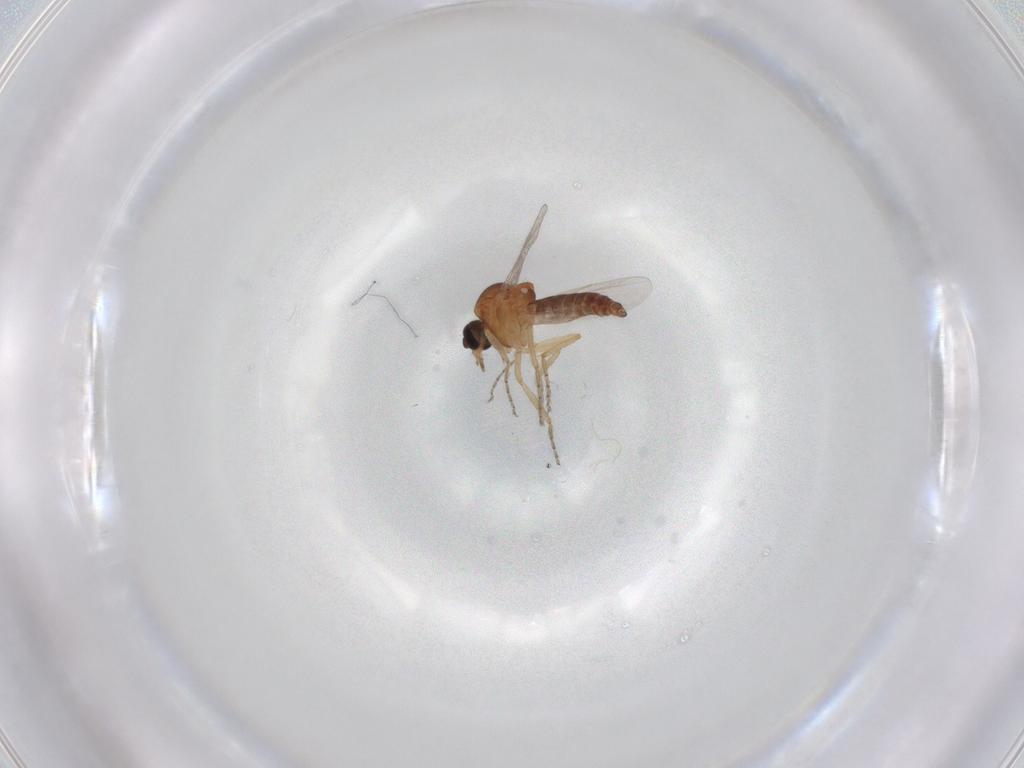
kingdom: Animalia
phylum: Arthropoda
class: Insecta
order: Diptera
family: Ceratopogonidae
